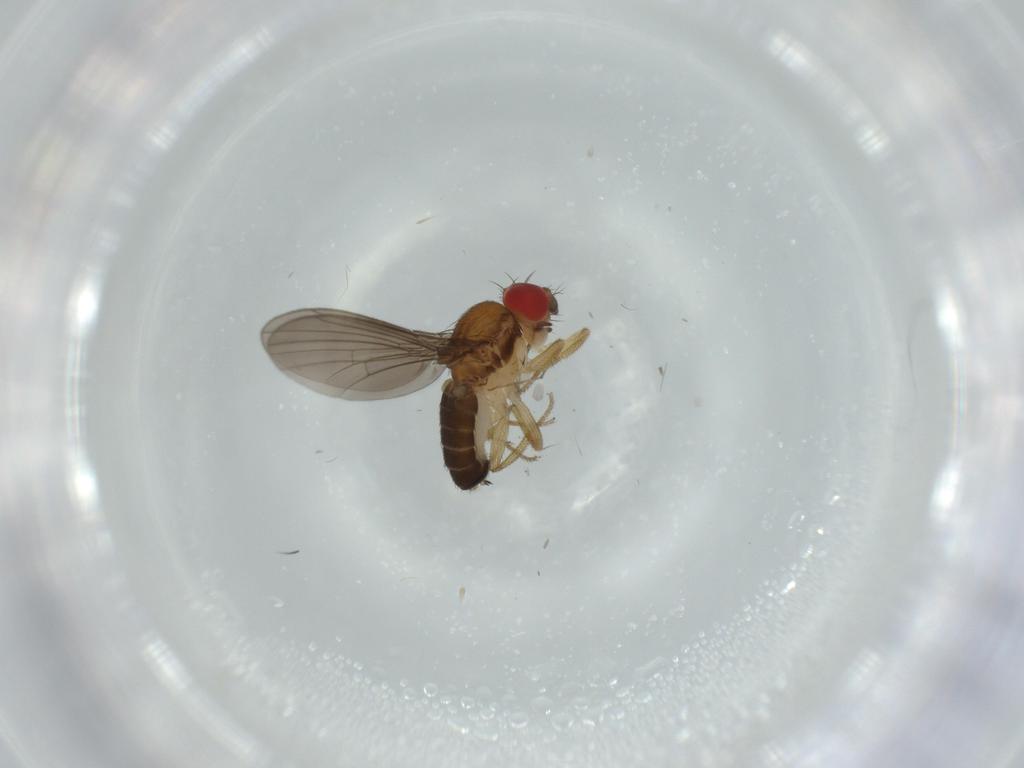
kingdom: Animalia
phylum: Arthropoda
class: Insecta
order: Diptera
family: Drosophilidae
